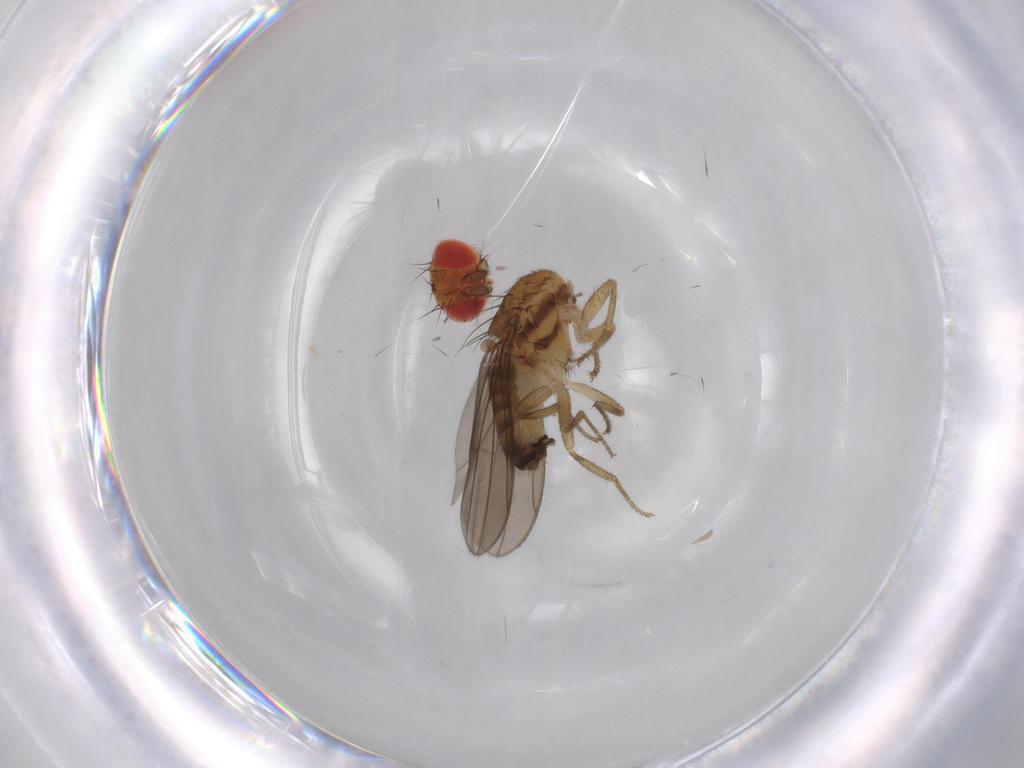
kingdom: Animalia
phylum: Arthropoda
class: Insecta
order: Diptera
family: Drosophilidae
